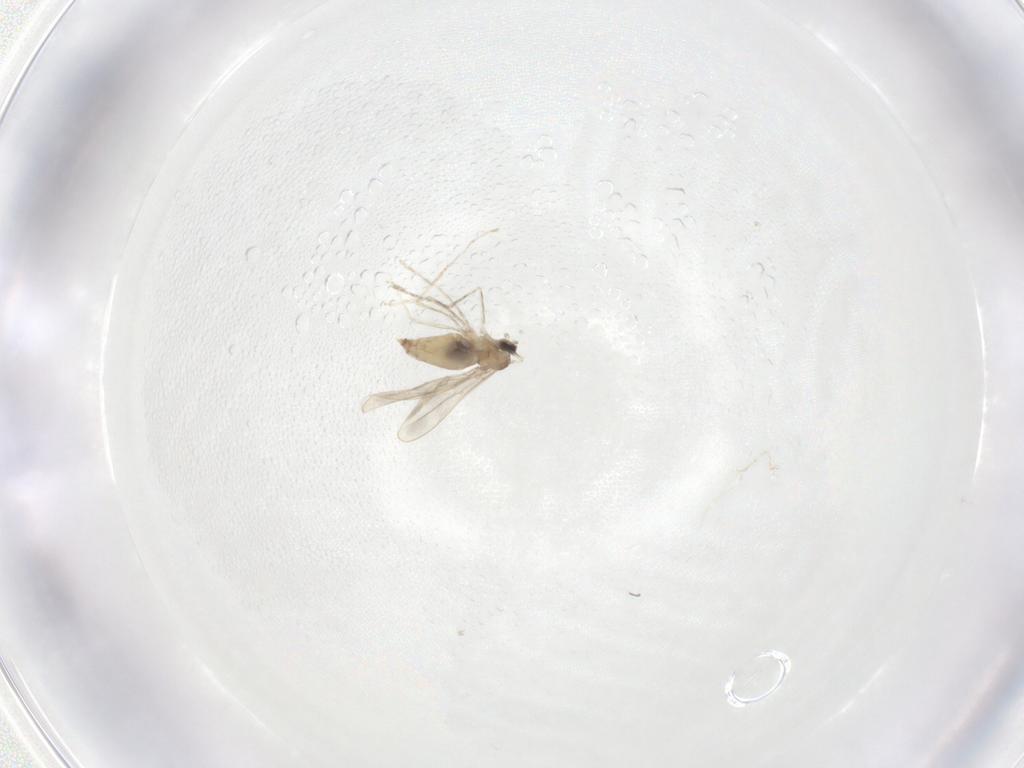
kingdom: Animalia
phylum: Arthropoda
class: Insecta
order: Diptera
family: Cecidomyiidae
